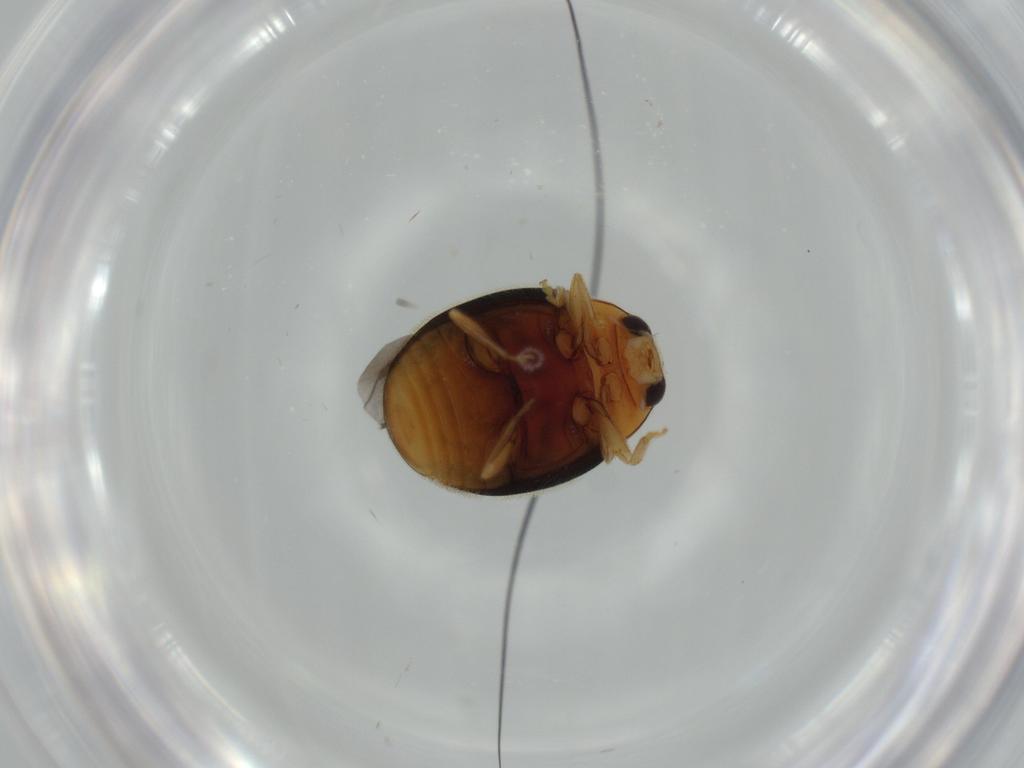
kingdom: Animalia
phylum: Arthropoda
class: Insecta
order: Coleoptera
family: Coccinellidae
